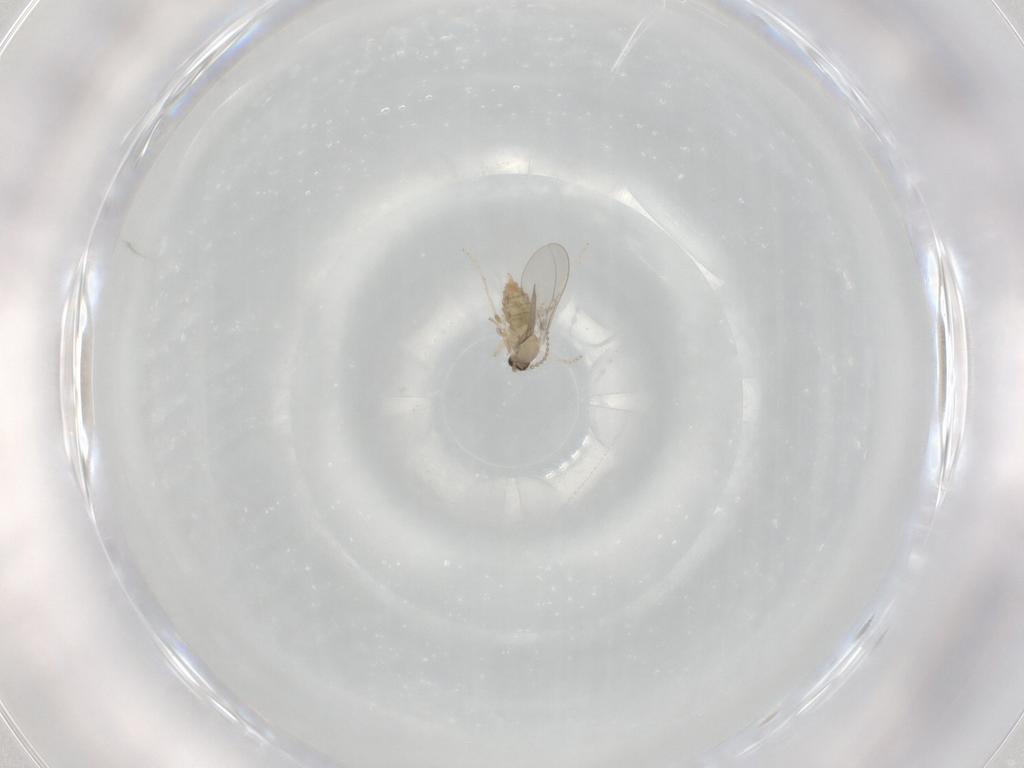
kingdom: Animalia
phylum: Arthropoda
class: Insecta
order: Diptera
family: Cecidomyiidae
